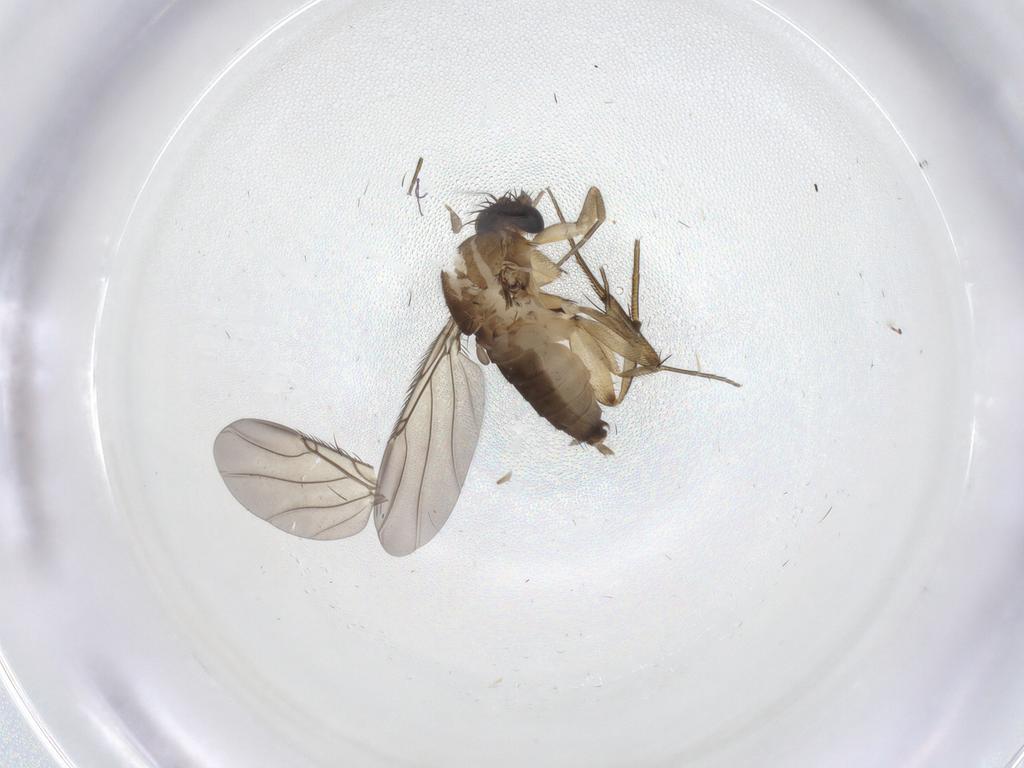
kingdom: Animalia
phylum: Arthropoda
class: Insecta
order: Diptera
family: Phoridae
